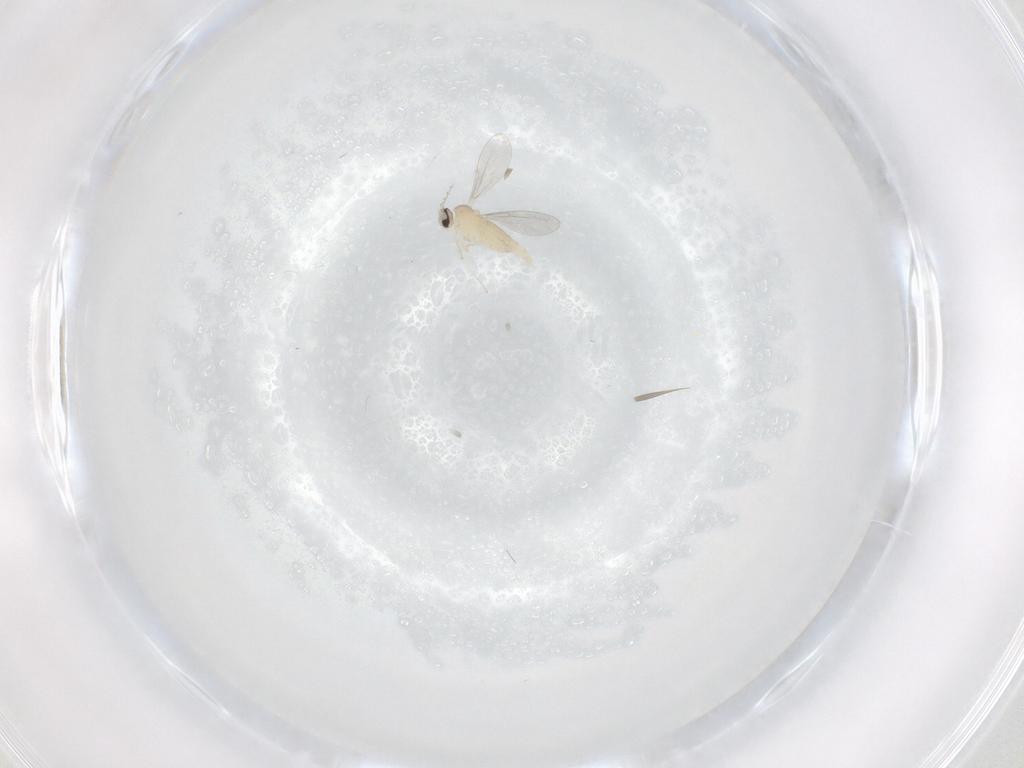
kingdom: Animalia
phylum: Arthropoda
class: Insecta
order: Diptera
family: Cecidomyiidae
